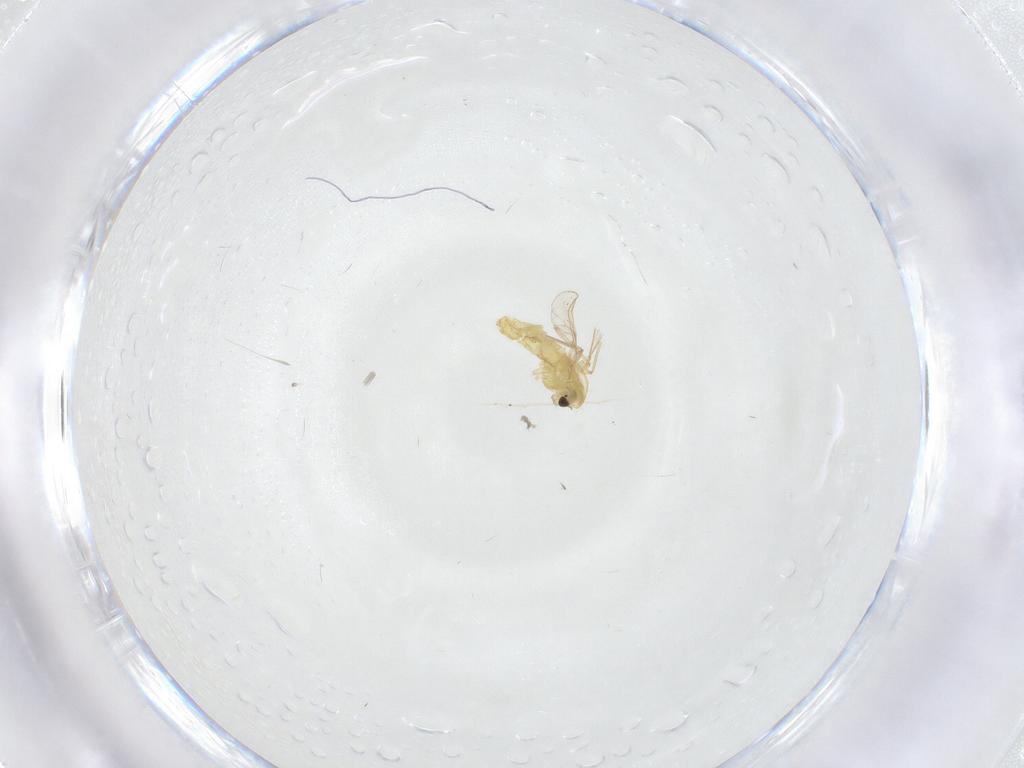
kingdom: Animalia
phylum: Arthropoda
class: Insecta
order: Diptera
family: Chironomidae
